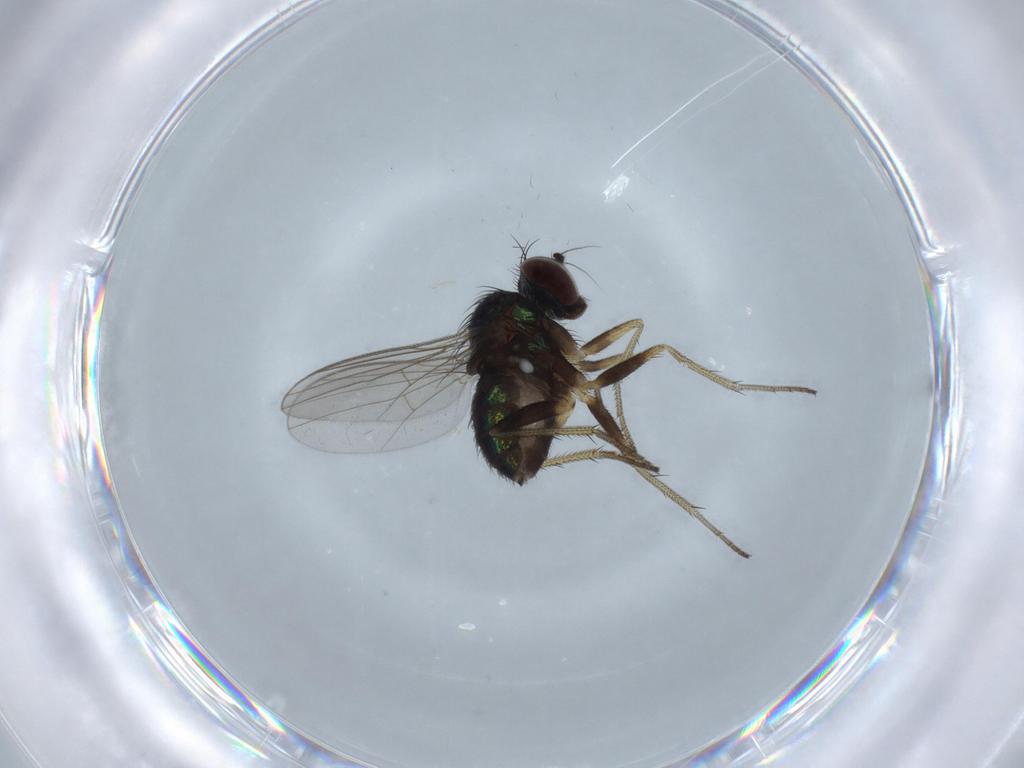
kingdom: Animalia
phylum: Arthropoda
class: Insecta
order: Diptera
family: Dolichopodidae
